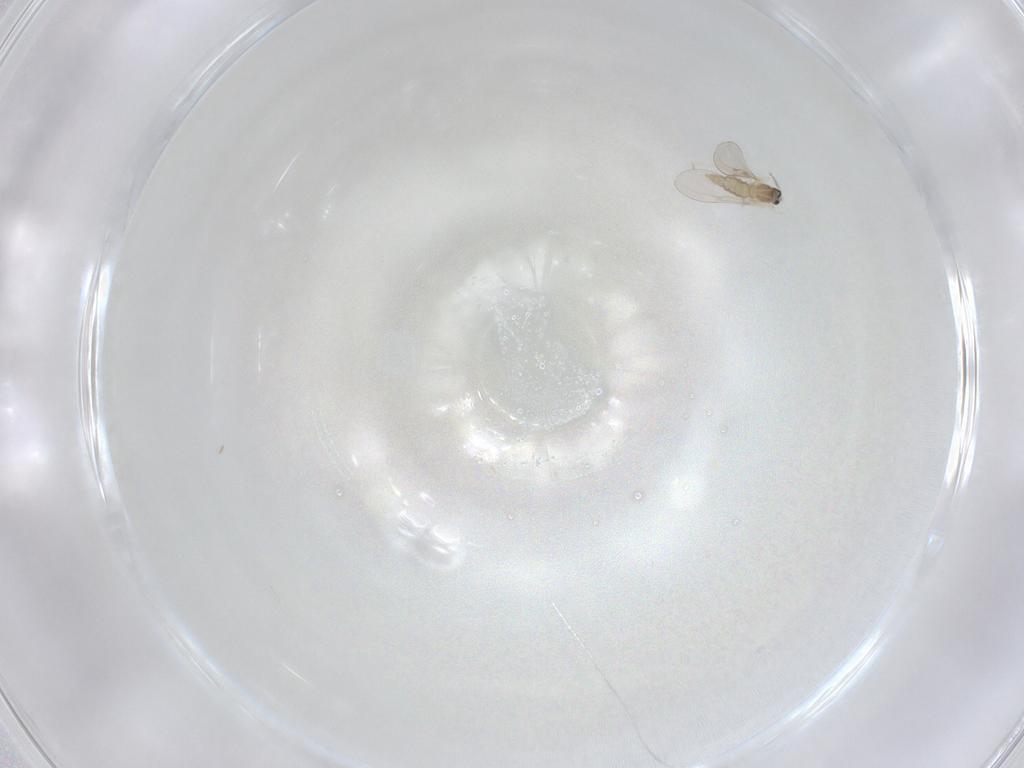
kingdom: Animalia
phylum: Arthropoda
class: Insecta
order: Diptera
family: Cecidomyiidae
